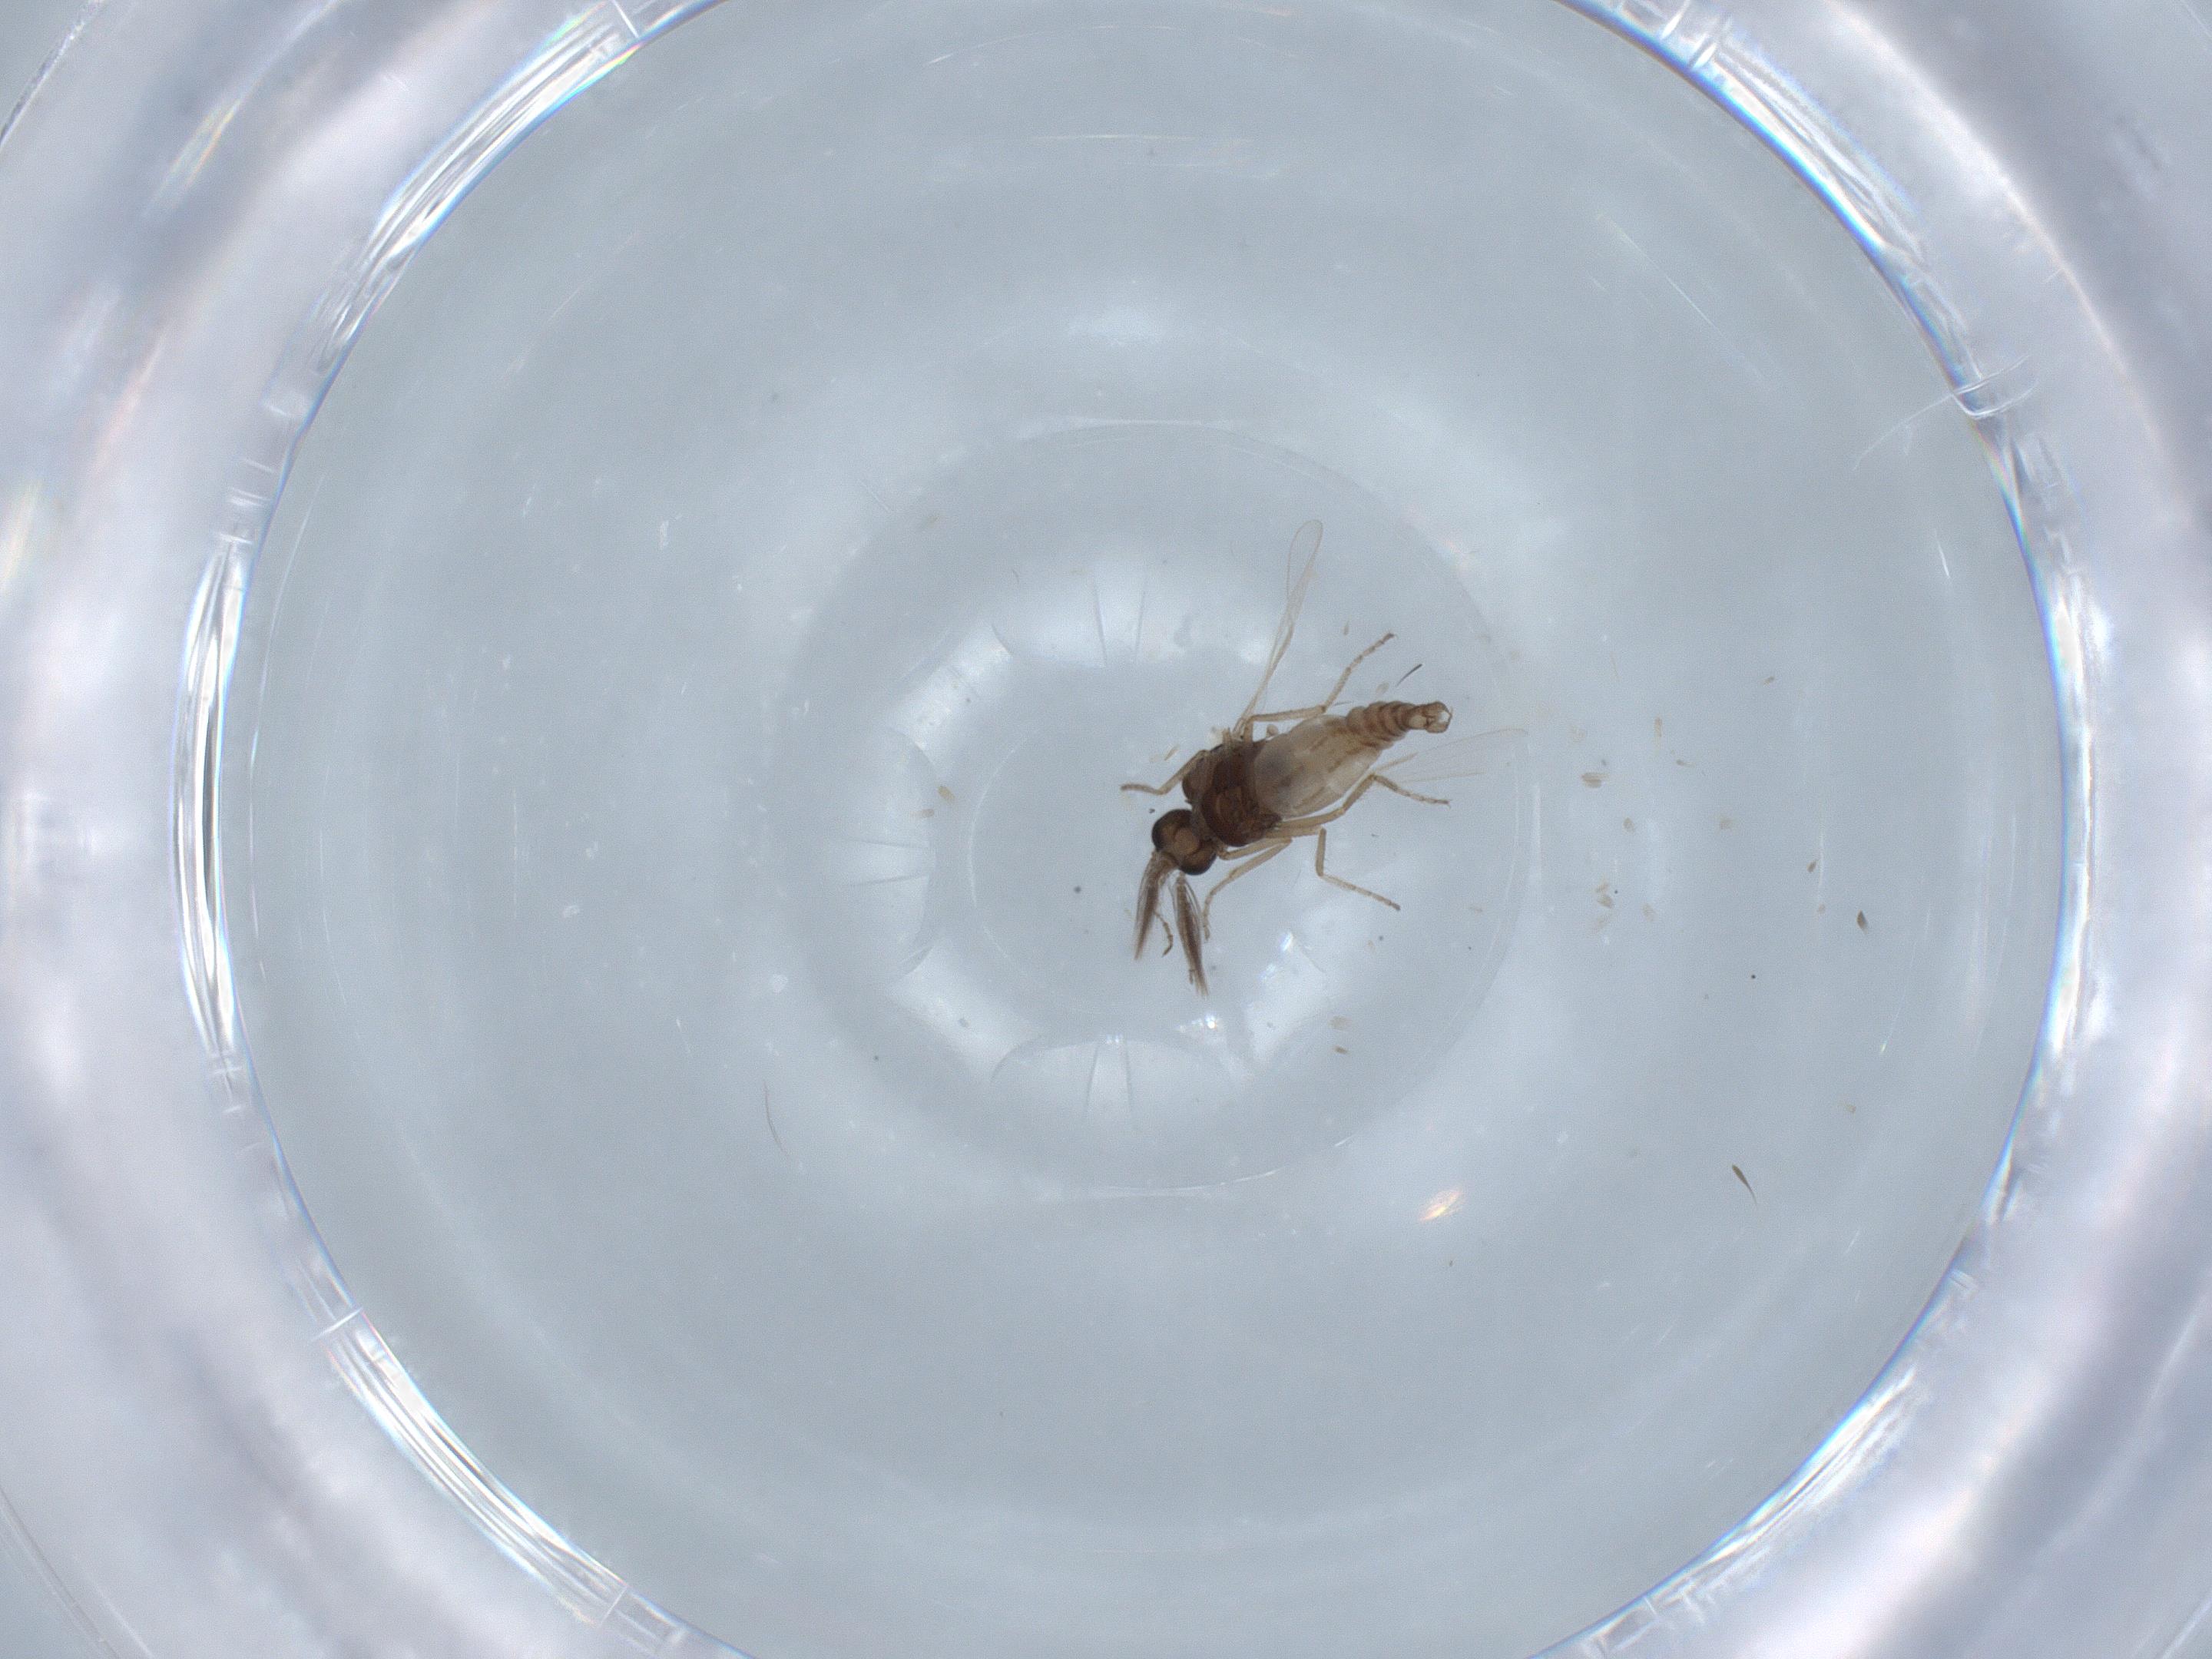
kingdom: Animalia
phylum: Arthropoda
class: Insecta
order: Diptera
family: Ceratopogonidae
